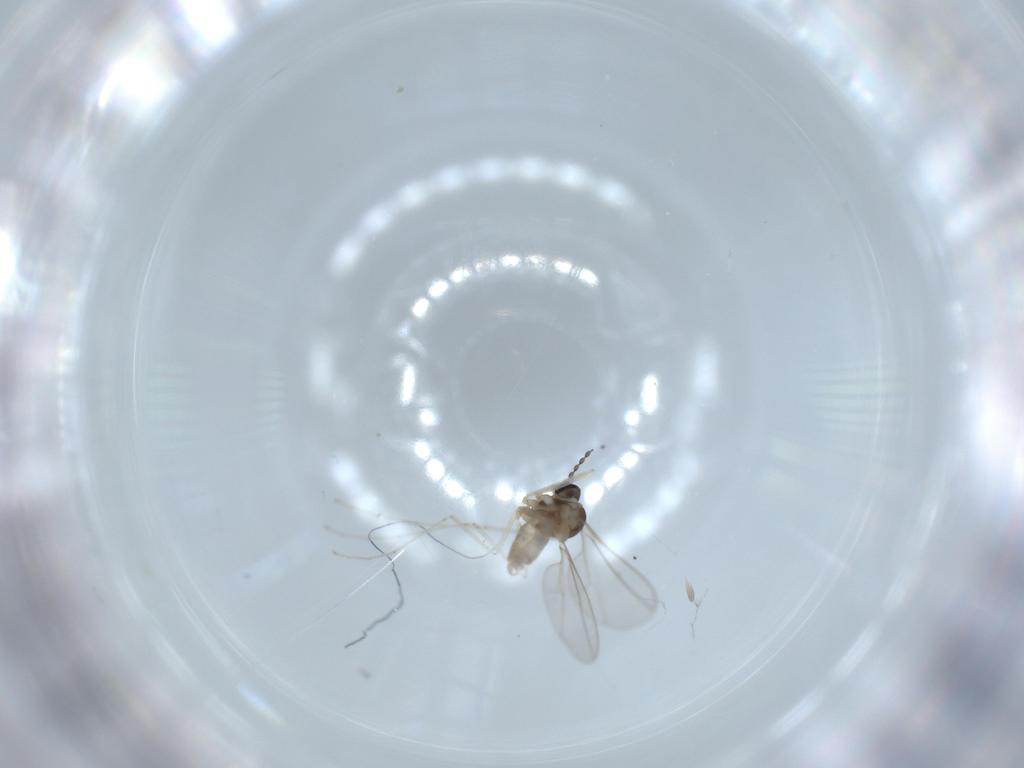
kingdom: Animalia
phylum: Arthropoda
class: Insecta
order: Diptera
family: Cecidomyiidae
